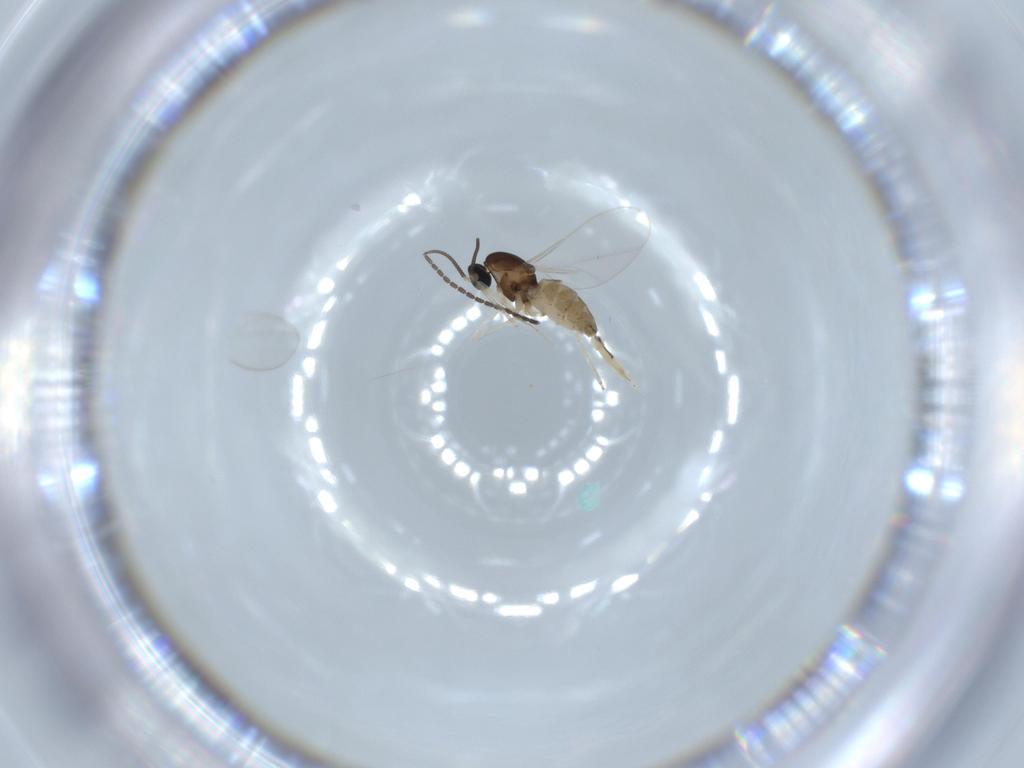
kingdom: Animalia
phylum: Arthropoda
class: Insecta
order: Diptera
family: Cecidomyiidae
